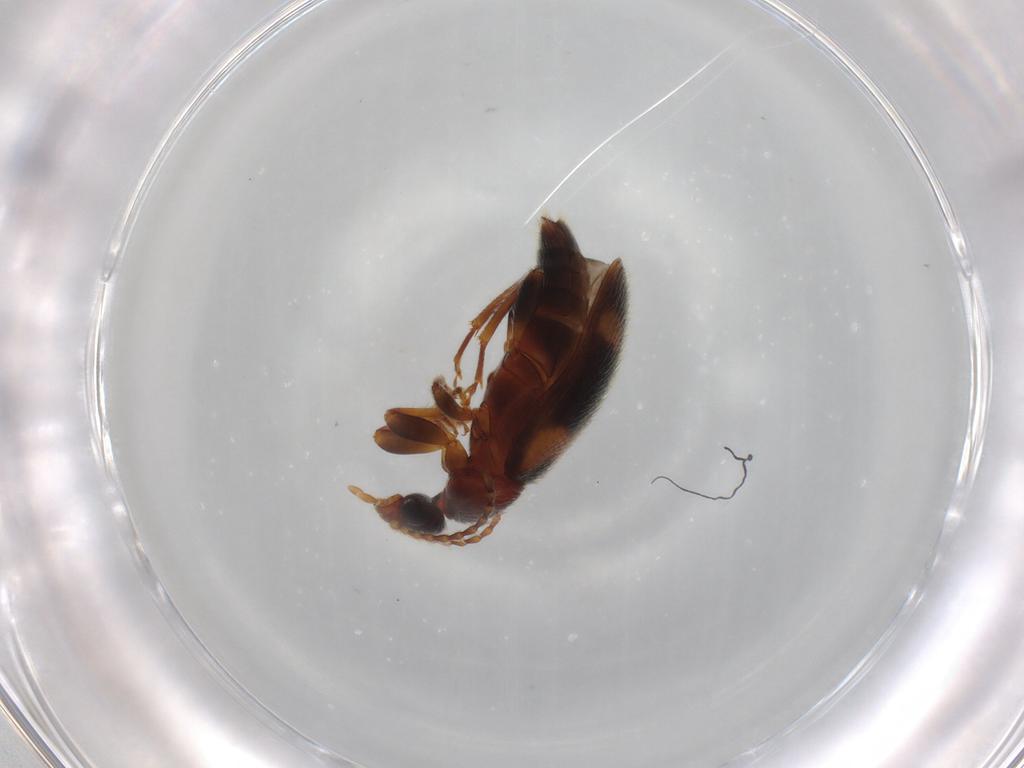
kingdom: Animalia
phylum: Arthropoda
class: Insecta
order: Coleoptera
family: Anthicidae
